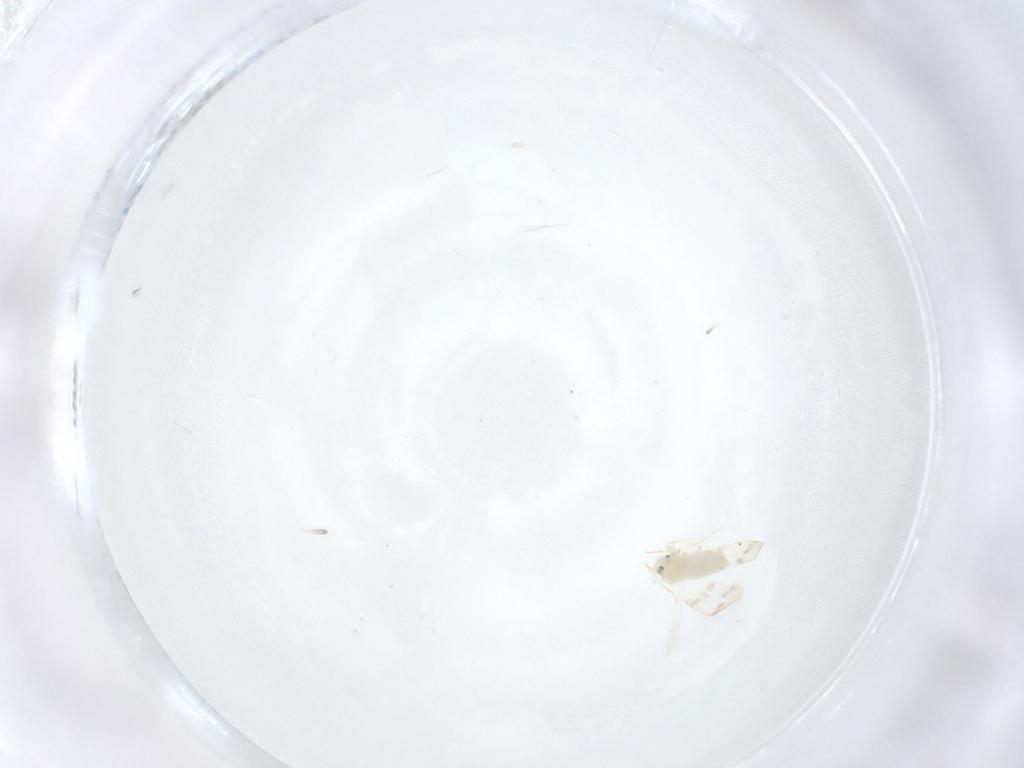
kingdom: Animalia
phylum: Arthropoda
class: Insecta
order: Hemiptera
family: Aleyrodidae
